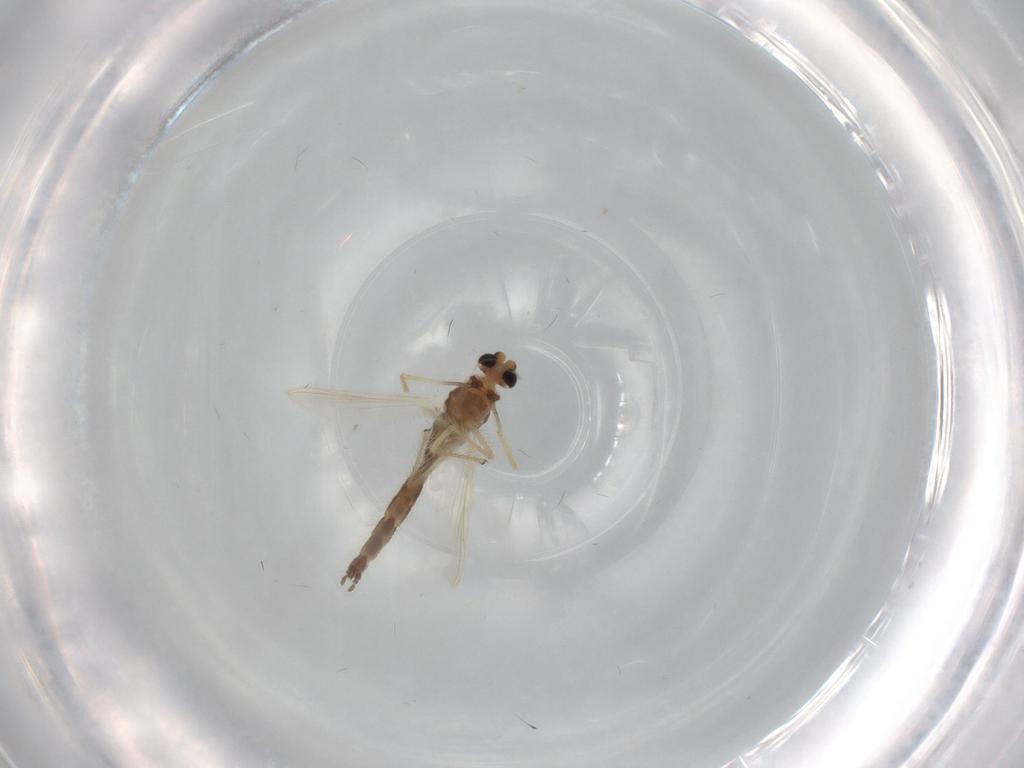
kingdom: Animalia
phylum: Arthropoda
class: Insecta
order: Diptera
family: Chironomidae
